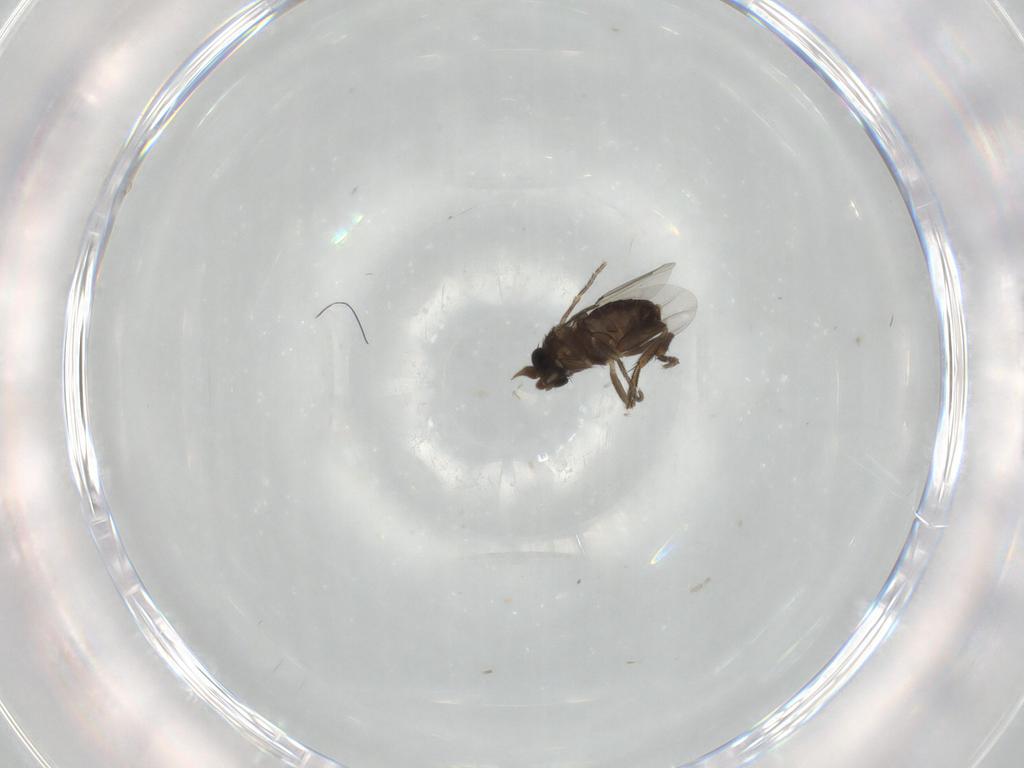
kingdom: Animalia
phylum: Arthropoda
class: Insecta
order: Diptera
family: Phoridae
